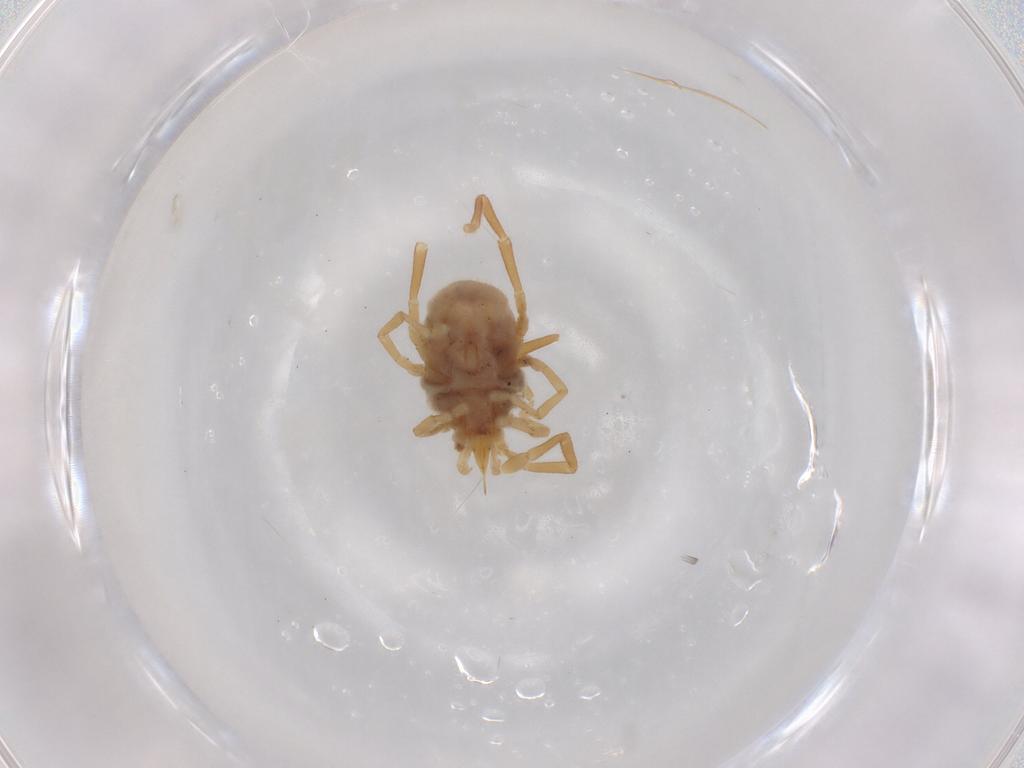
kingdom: Animalia
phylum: Arthropoda
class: Arachnida
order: Trombidiformes
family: Erythraeidae
